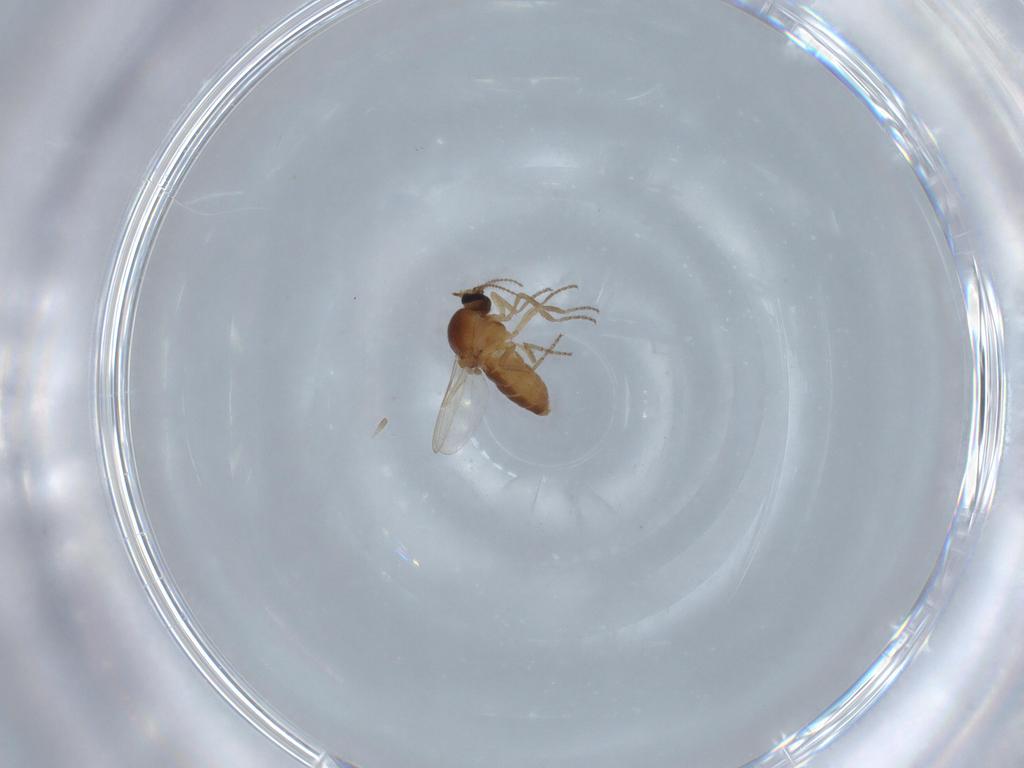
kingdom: Animalia
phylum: Arthropoda
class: Insecta
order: Diptera
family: Ceratopogonidae
